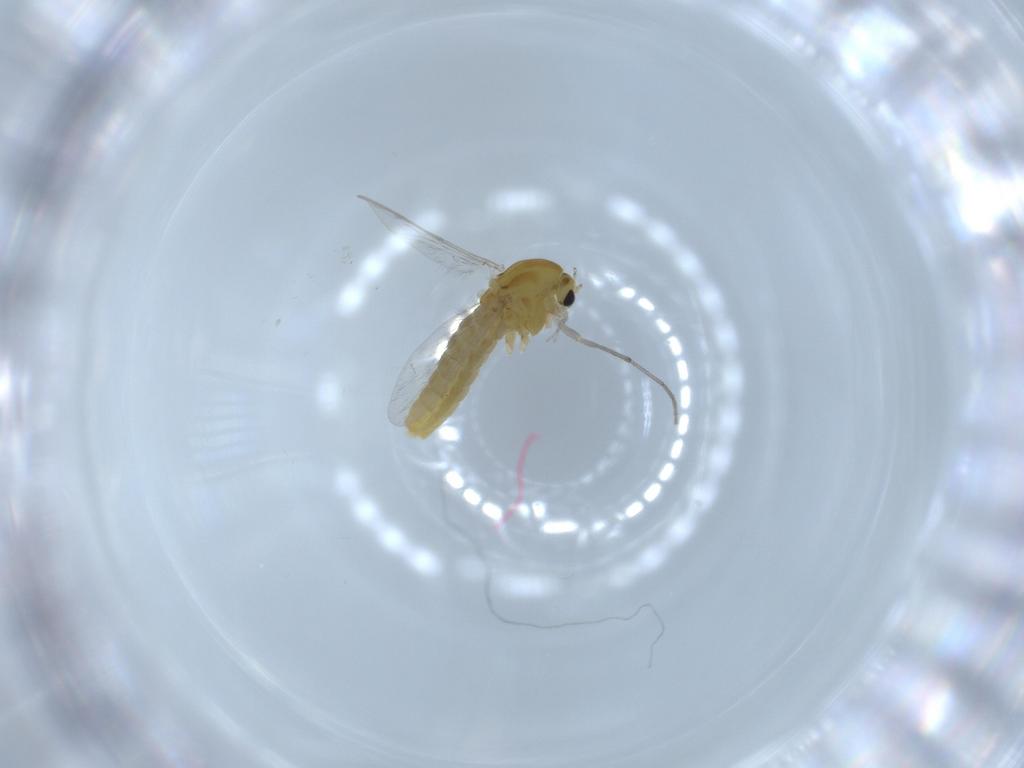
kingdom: Animalia
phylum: Arthropoda
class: Insecta
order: Diptera
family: Chironomidae
